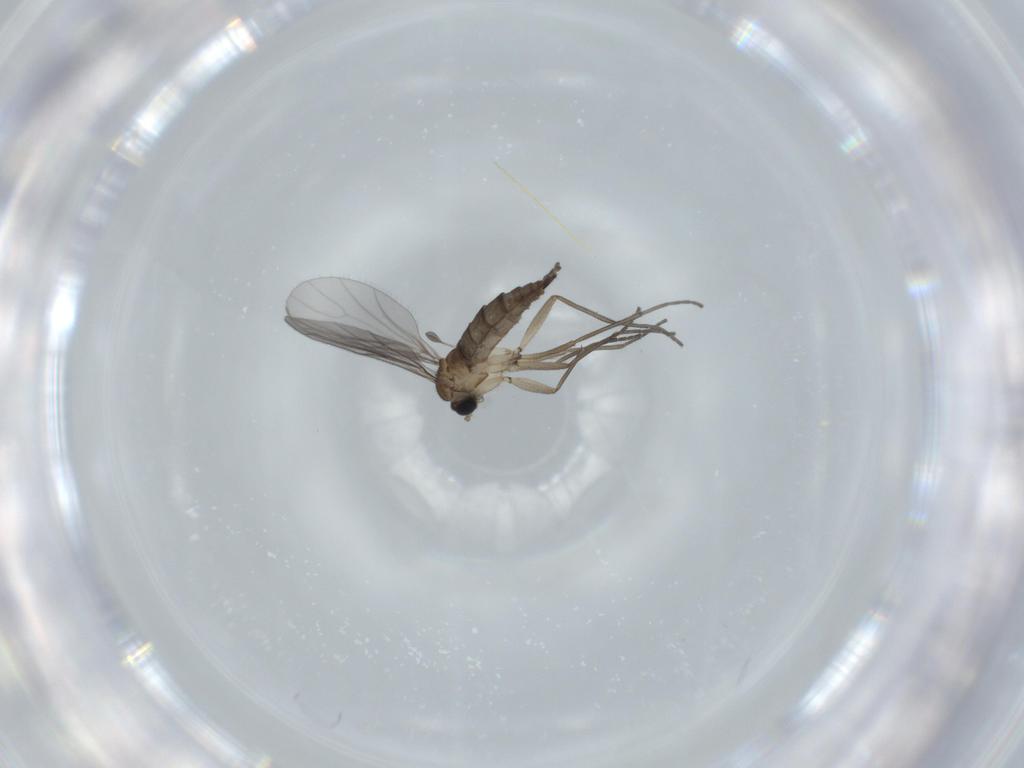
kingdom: Animalia
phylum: Arthropoda
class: Insecta
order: Diptera
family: Sciaridae
